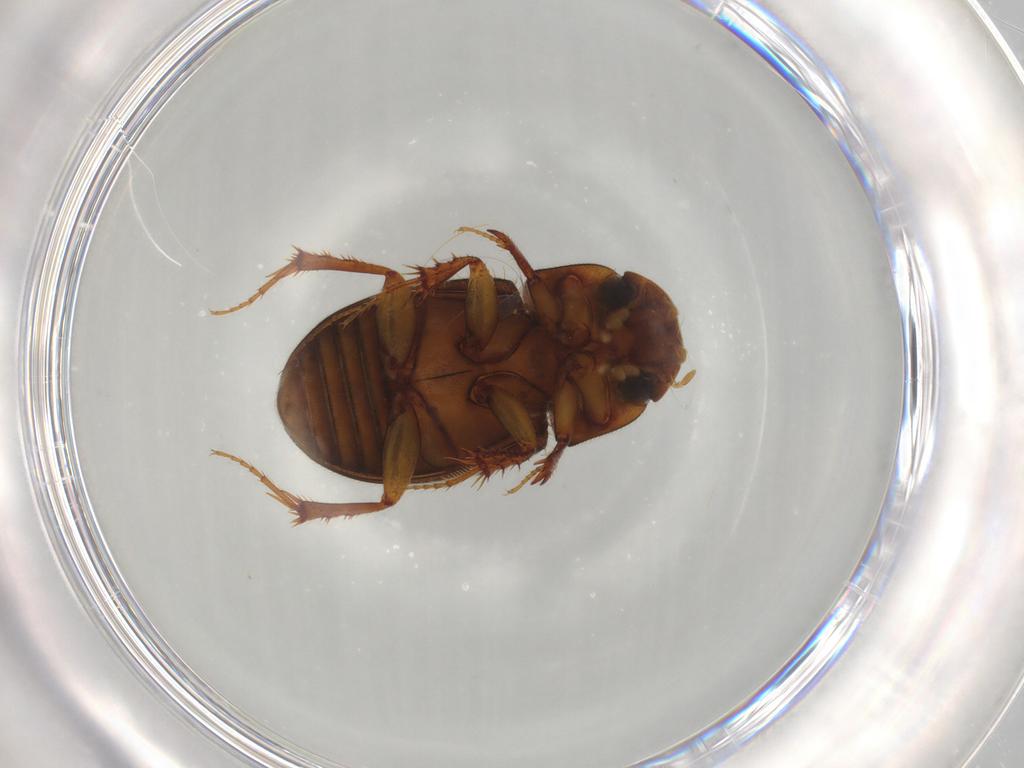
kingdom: Animalia
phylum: Arthropoda
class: Insecta
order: Coleoptera
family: Scarabaeidae
